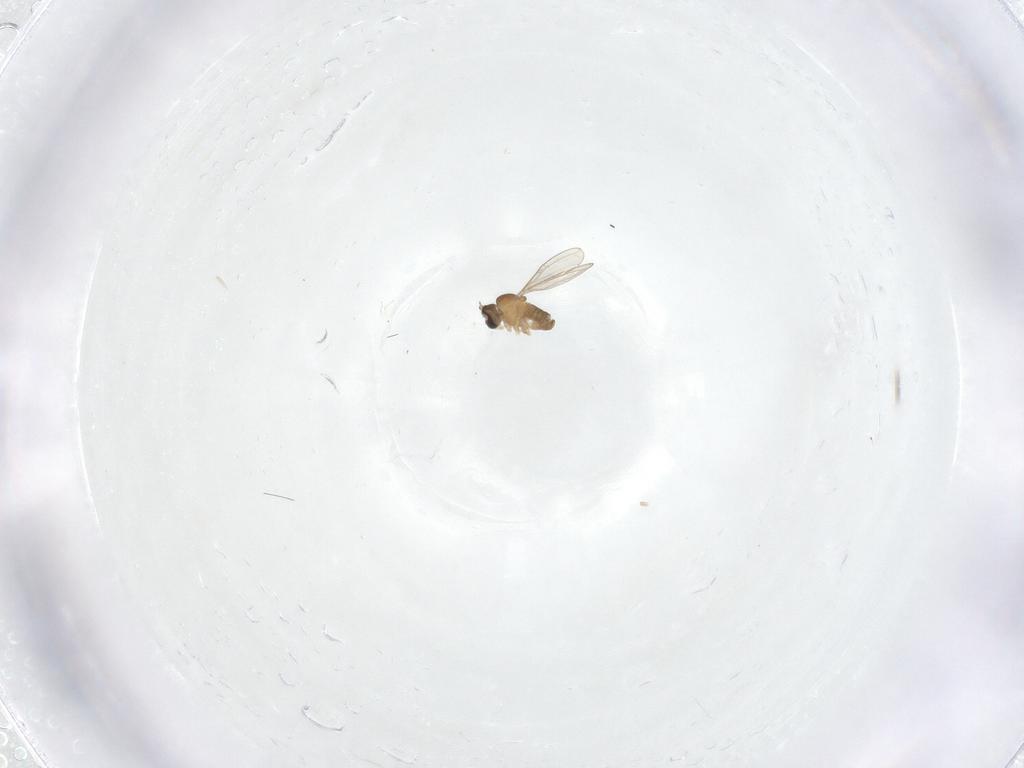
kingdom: Animalia
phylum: Arthropoda
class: Insecta
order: Diptera
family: Cecidomyiidae
